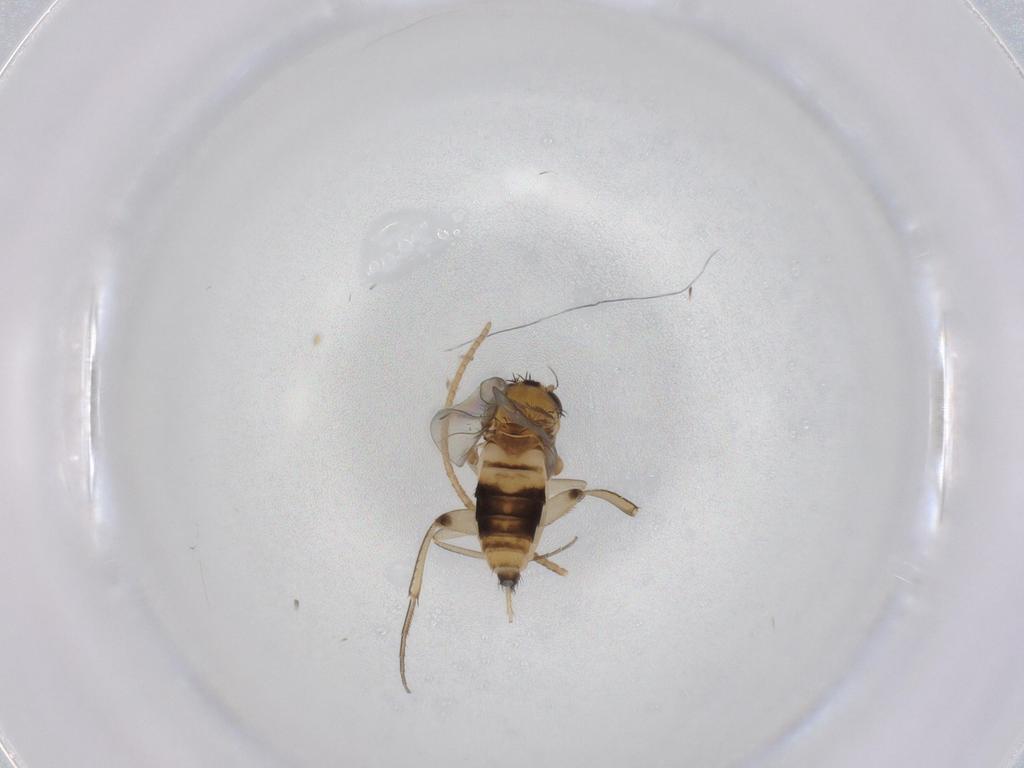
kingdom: Animalia
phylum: Arthropoda
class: Insecta
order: Diptera
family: Phoridae
